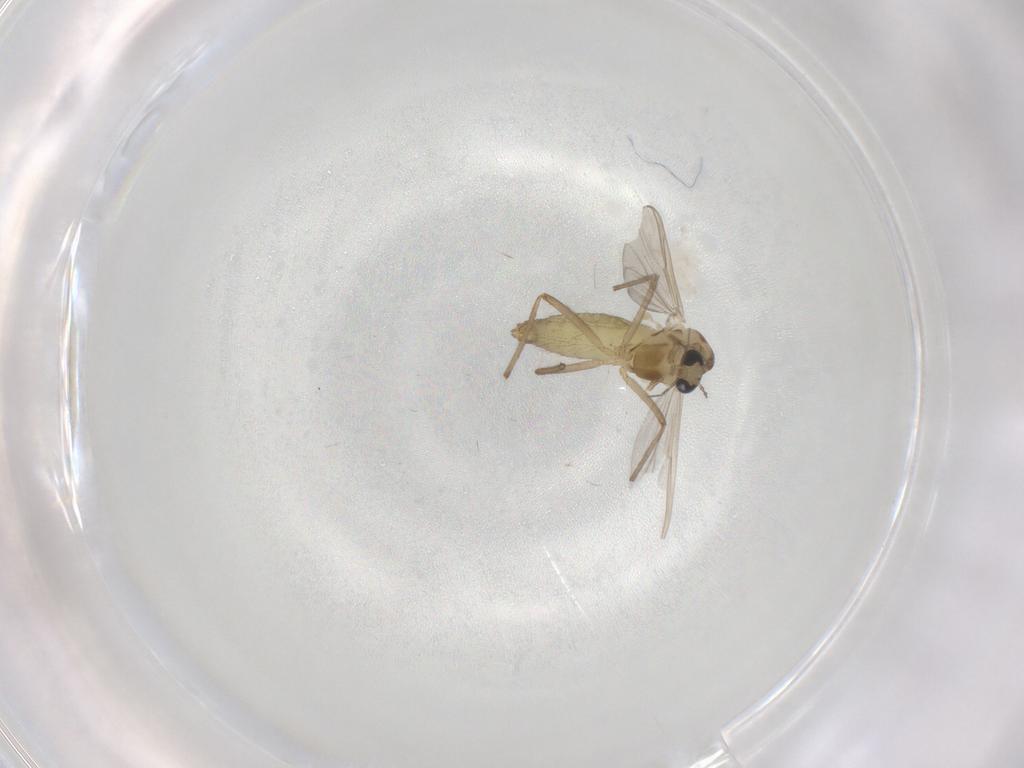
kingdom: Animalia
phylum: Arthropoda
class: Insecta
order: Diptera
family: Chironomidae
